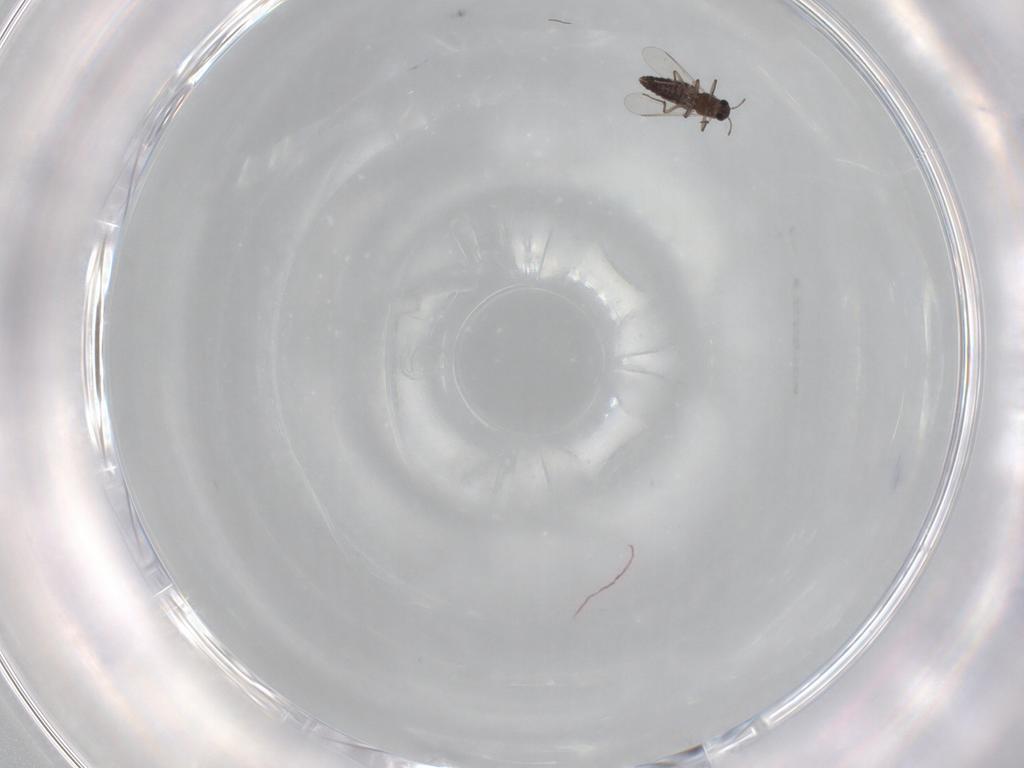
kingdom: Animalia
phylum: Arthropoda
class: Insecta
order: Diptera
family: Chironomidae
